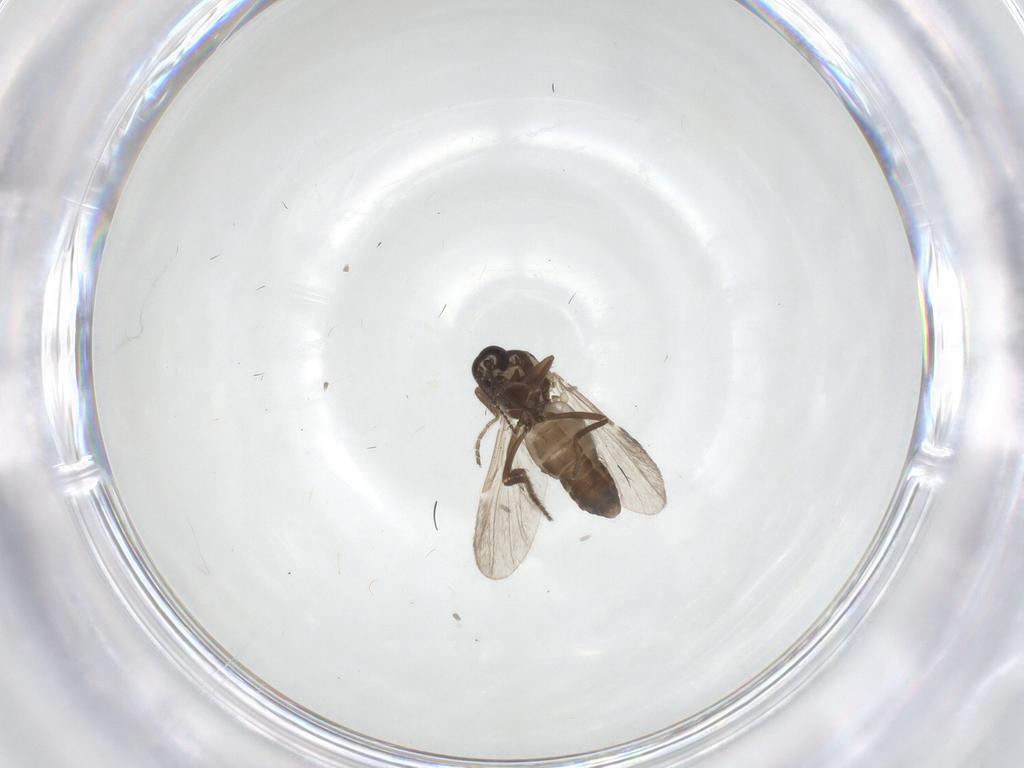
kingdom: Animalia
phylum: Arthropoda
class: Insecta
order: Diptera
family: Ceratopogonidae
